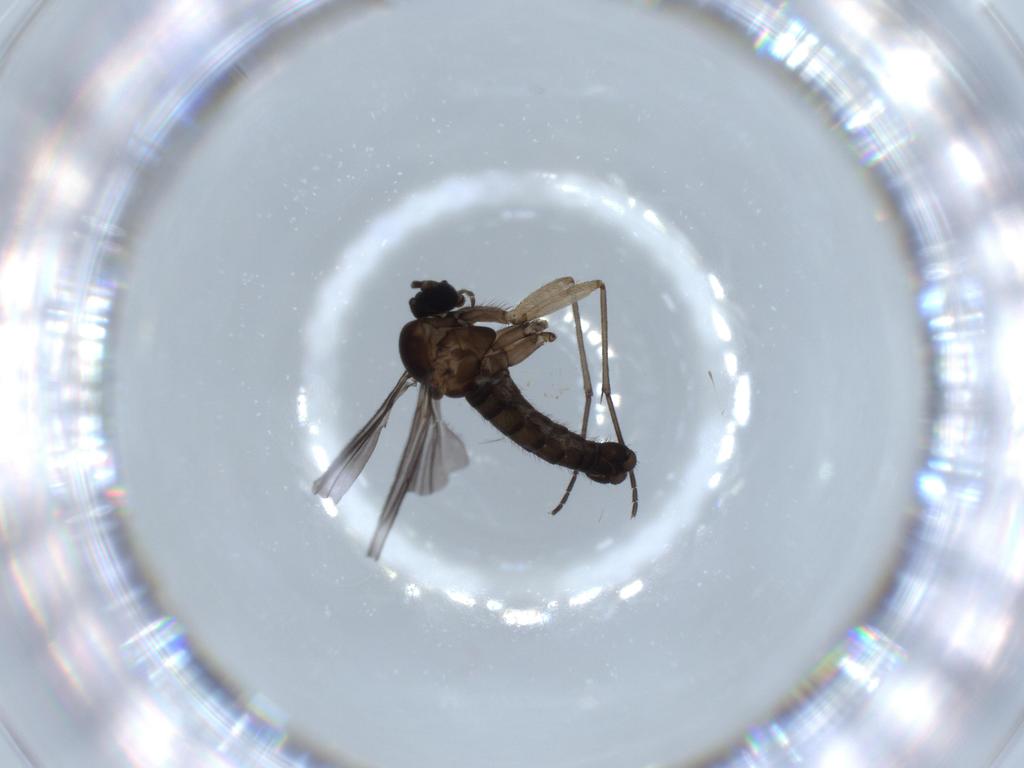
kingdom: Animalia
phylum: Arthropoda
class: Insecta
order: Diptera
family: Sciaridae
